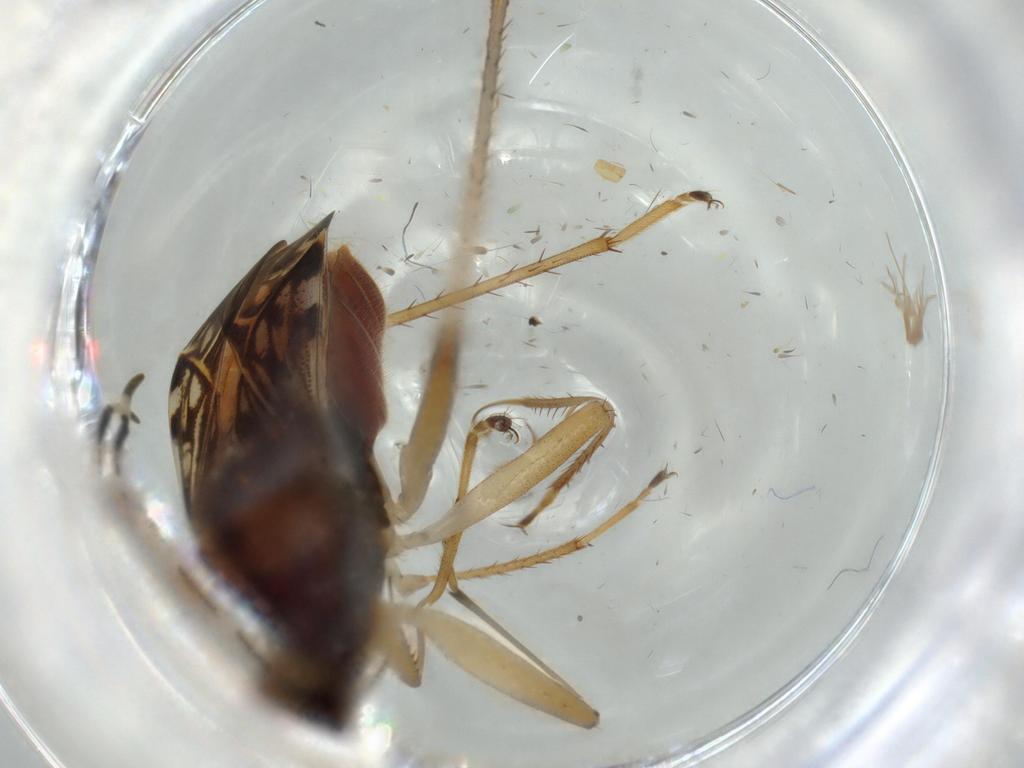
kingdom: Animalia
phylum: Arthropoda
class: Insecta
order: Hemiptera
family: Rhyparochromidae
